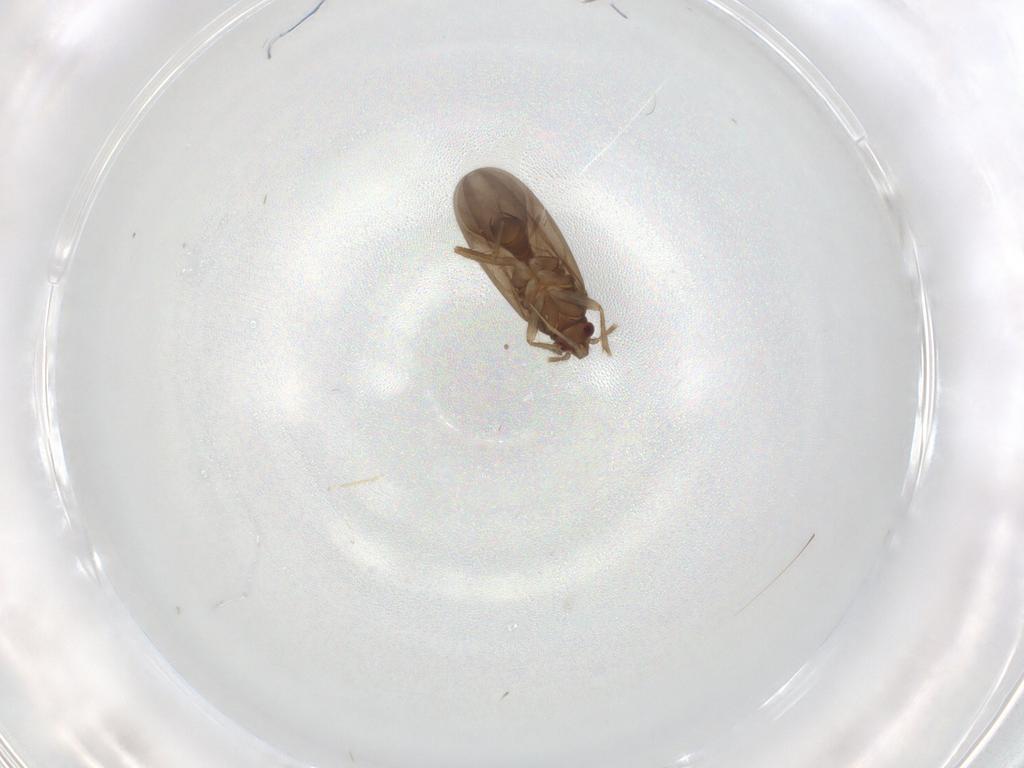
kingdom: Animalia
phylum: Arthropoda
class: Insecta
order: Hemiptera
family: Ceratocombidae
